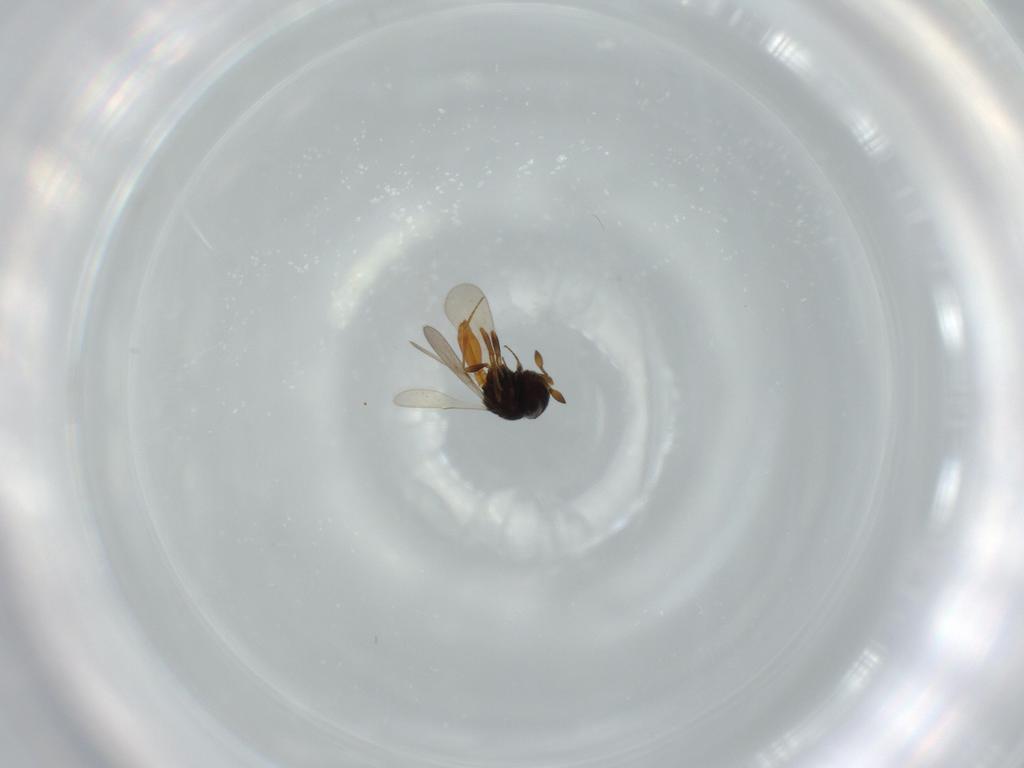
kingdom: Animalia
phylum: Arthropoda
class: Insecta
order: Hymenoptera
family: Scelionidae
